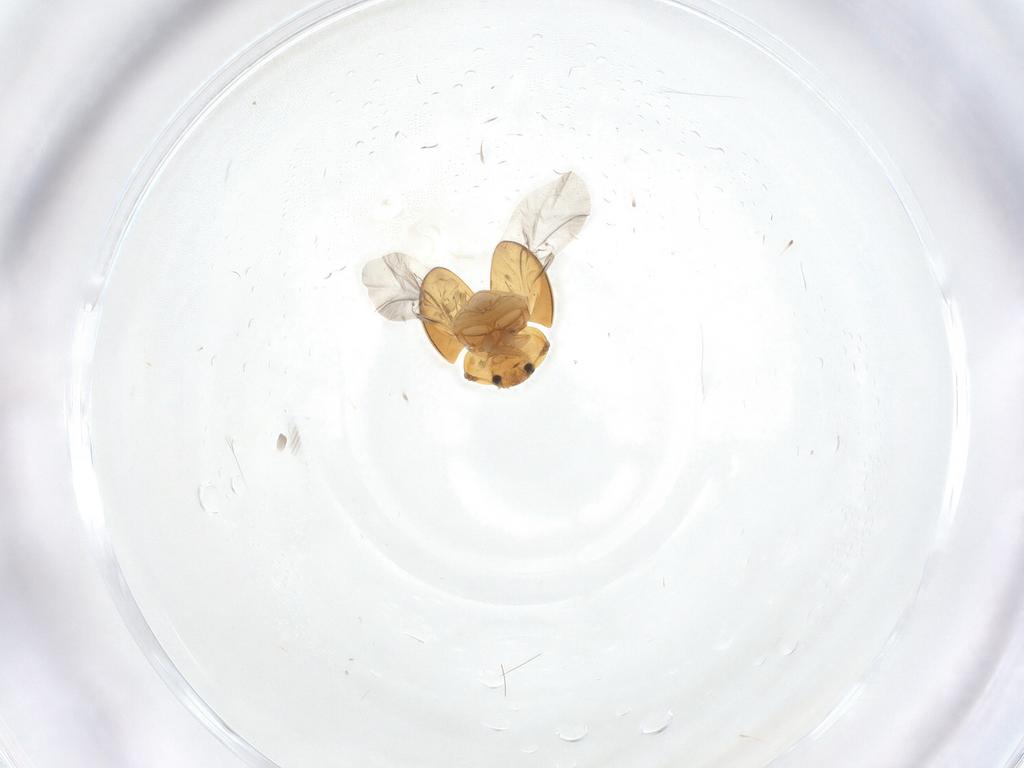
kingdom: Animalia
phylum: Arthropoda
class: Insecta
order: Coleoptera
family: Phalacridae
